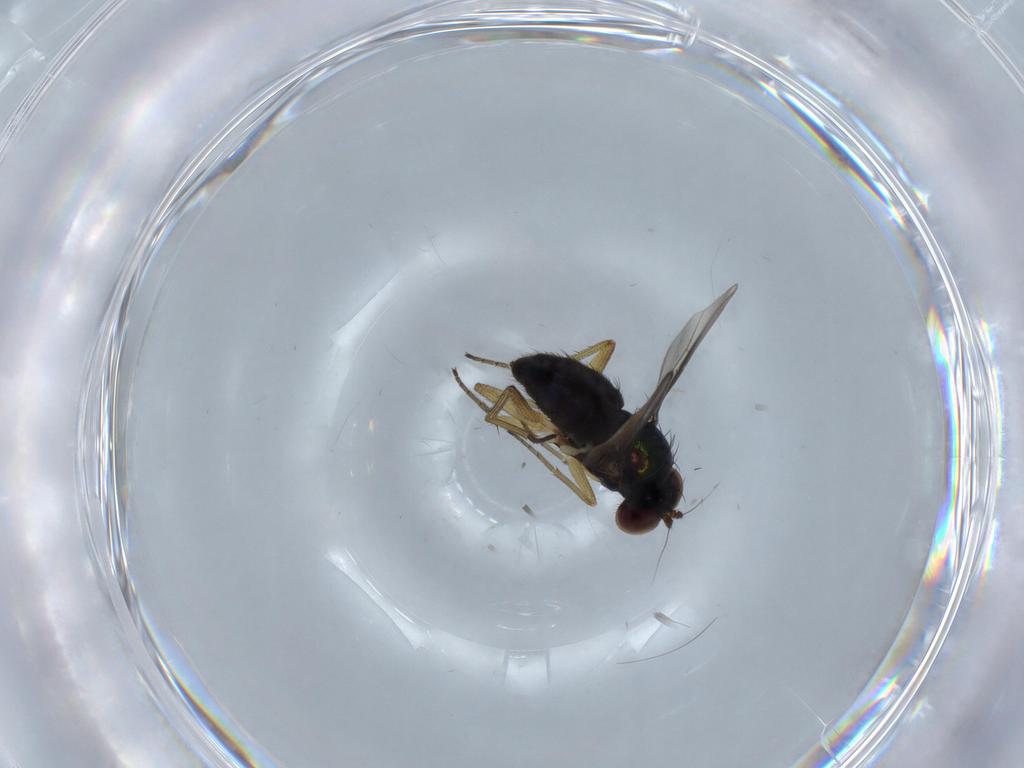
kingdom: Animalia
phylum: Arthropoda
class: Insecta
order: Diptera
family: Dolichopodidae
